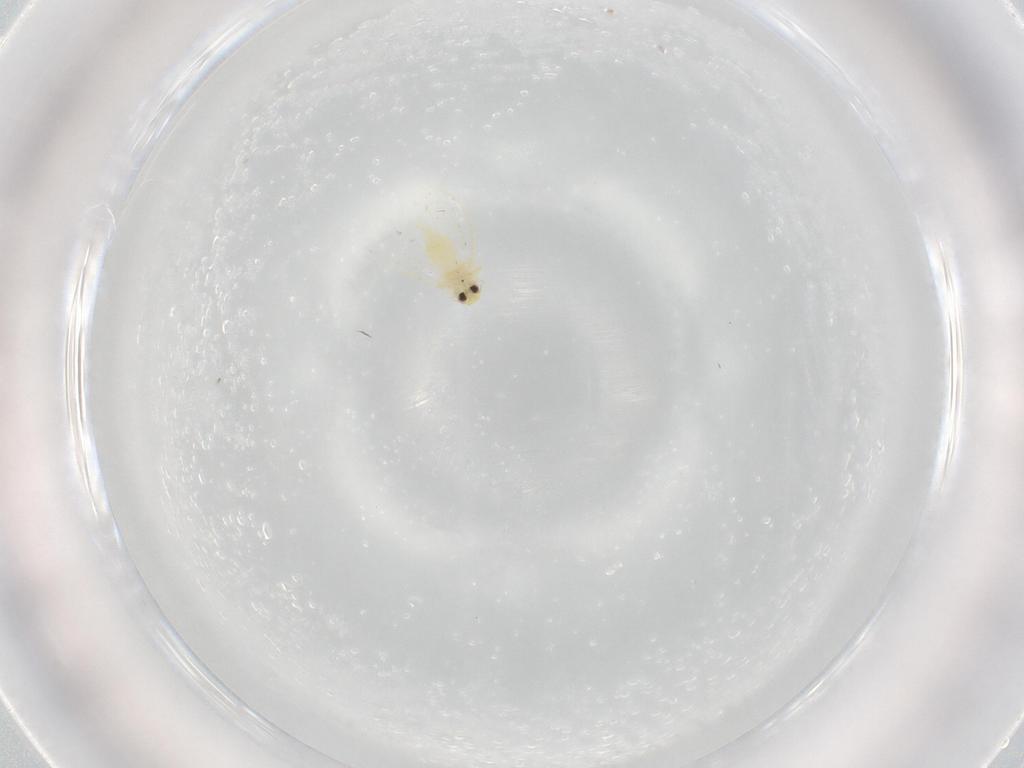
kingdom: Animalia
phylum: Arthropoda
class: Insecta
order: Hemiptera
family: Aleyrodidae
